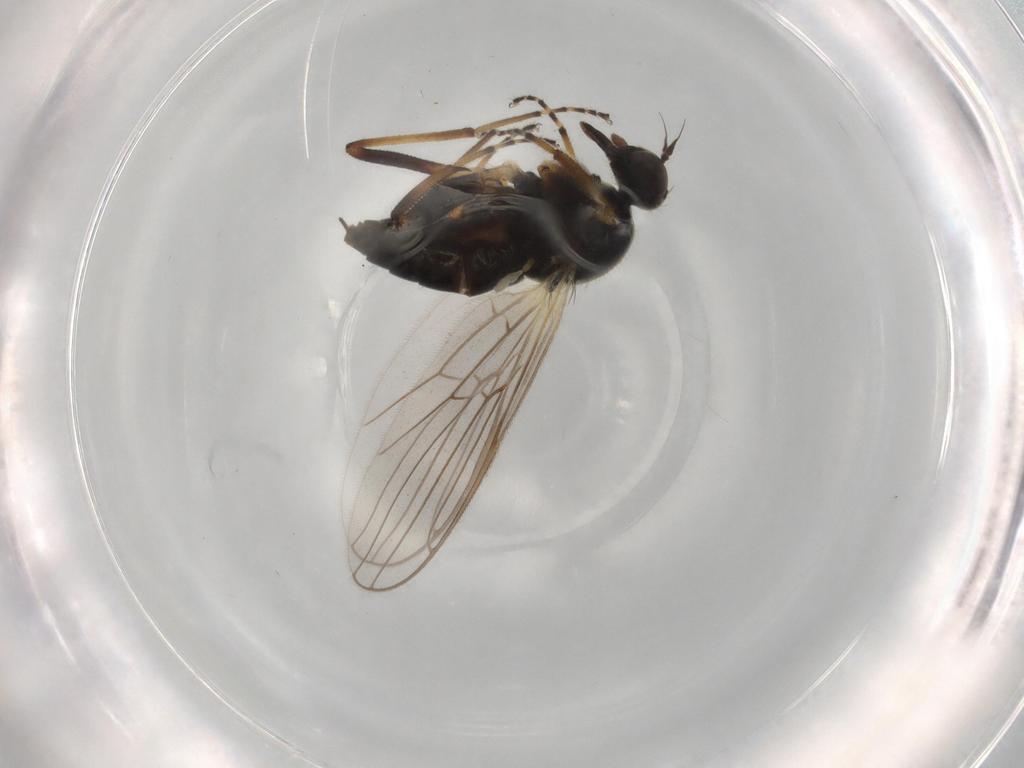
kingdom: Animalia
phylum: Arthropoda
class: Insecta
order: Diptera
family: Hybotidae
